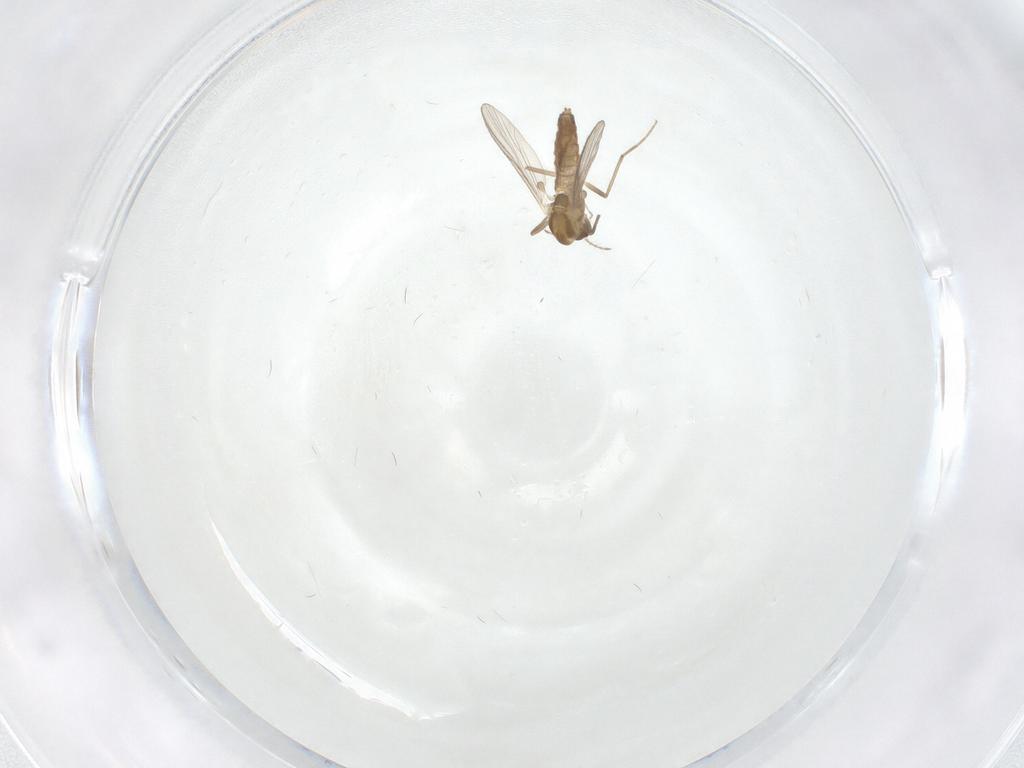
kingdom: Animalia
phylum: Arthropoda
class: Insecta
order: Diptera
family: Chironomidae
